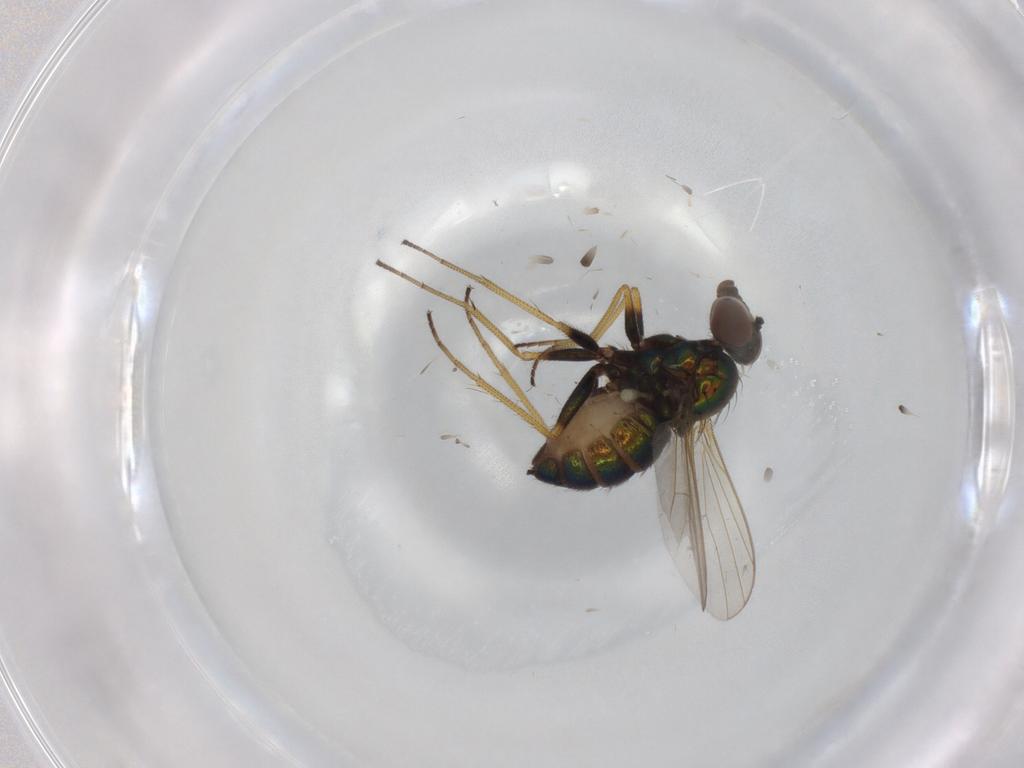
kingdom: Animalia
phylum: Arthropoda
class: Insecta
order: Diptera
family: Dolichopodidae
